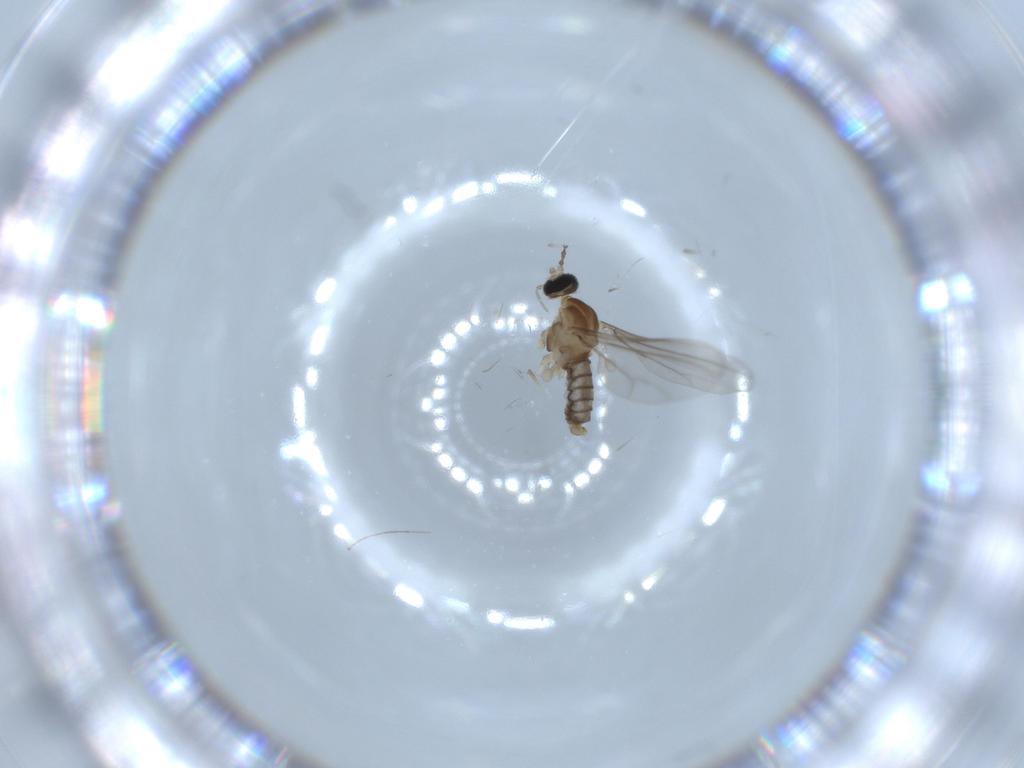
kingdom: Animalia
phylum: Arthropoda
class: Insecta
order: Diptera
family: Cecidomyiidae
